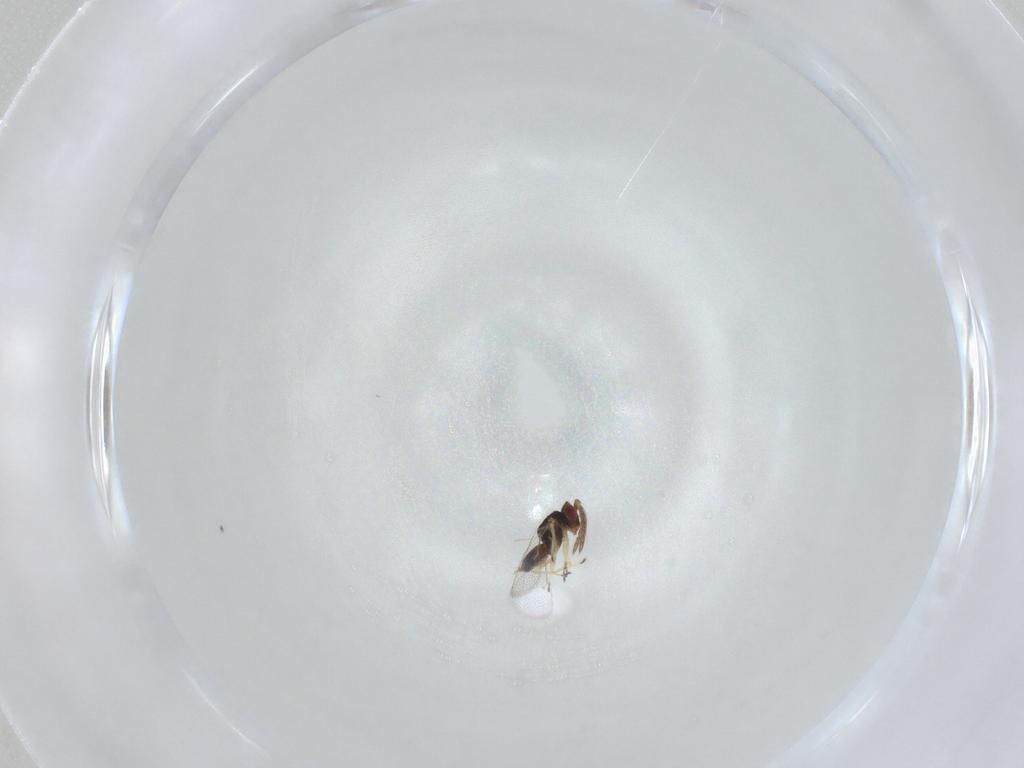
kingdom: Animalia
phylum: Arthropoda
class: Insecta
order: Hymenoptera
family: Eulophidae
